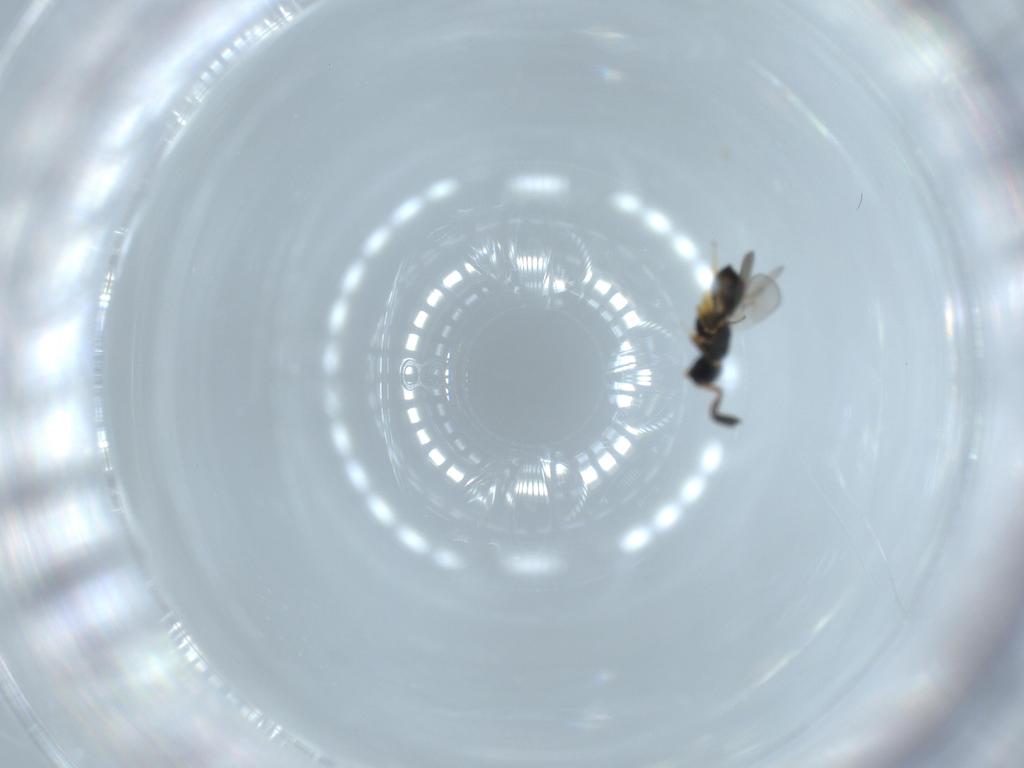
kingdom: Animalia
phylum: Arthropoda
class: Insecta
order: Hymenoptera
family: Scelionidae
